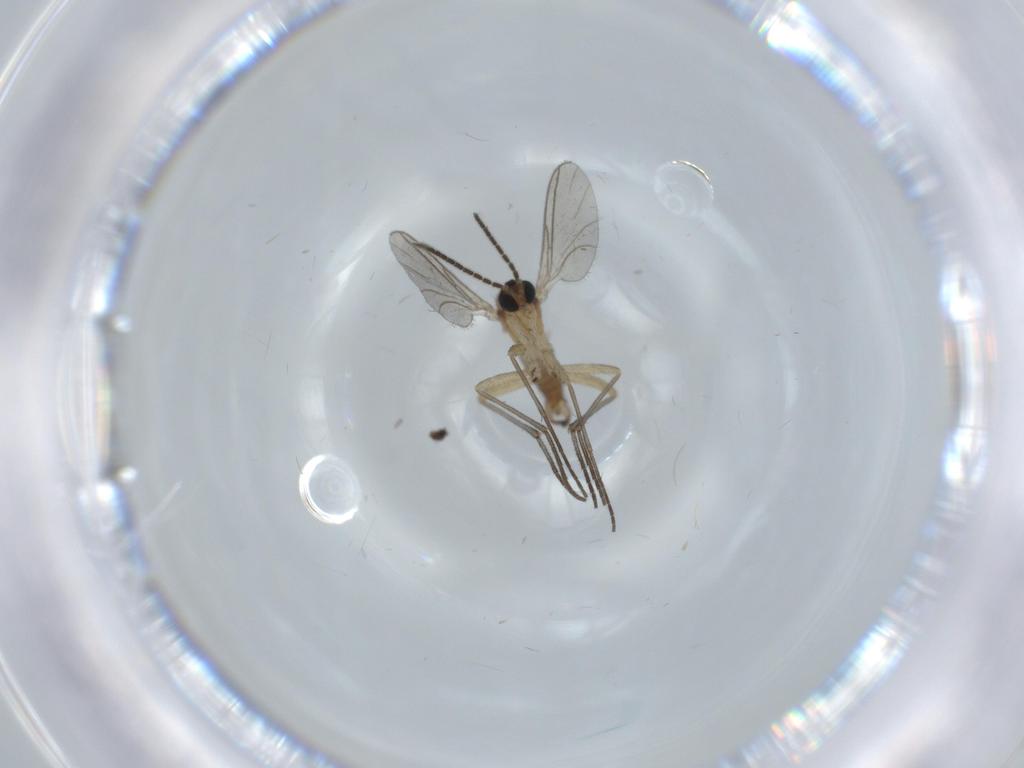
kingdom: Animalia
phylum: Arthropoda
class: Insecta
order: Diptera
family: Sciaridae
